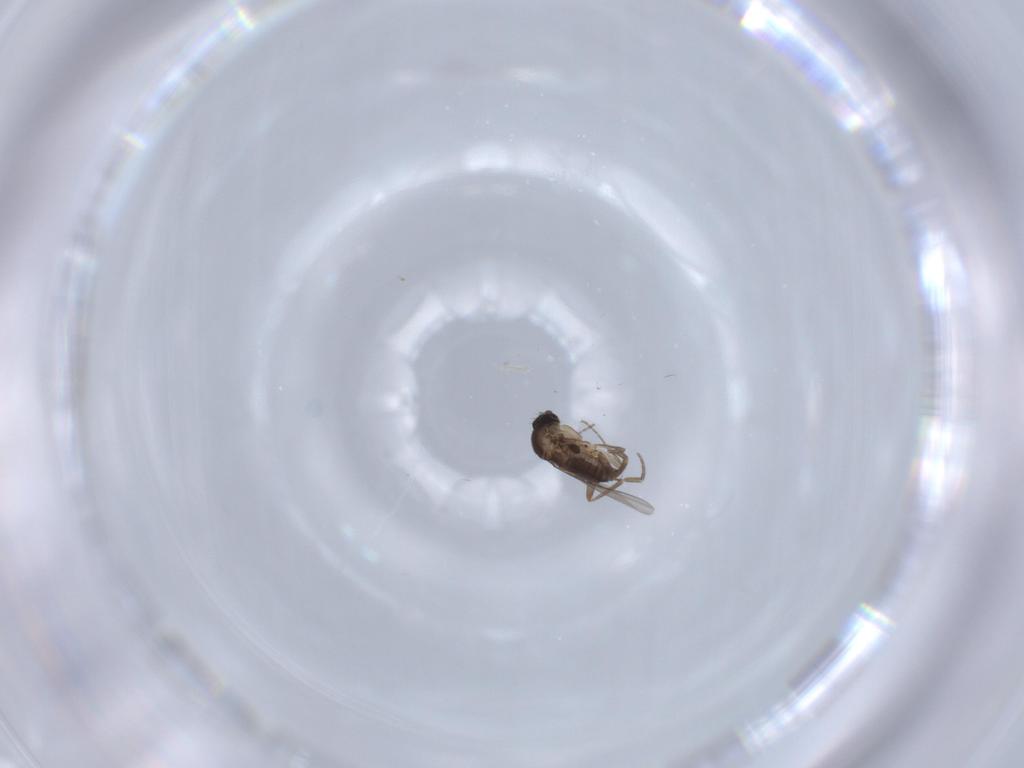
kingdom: Animalia
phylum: Arthropoda
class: Insecta
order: Diptera
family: Phoridae
